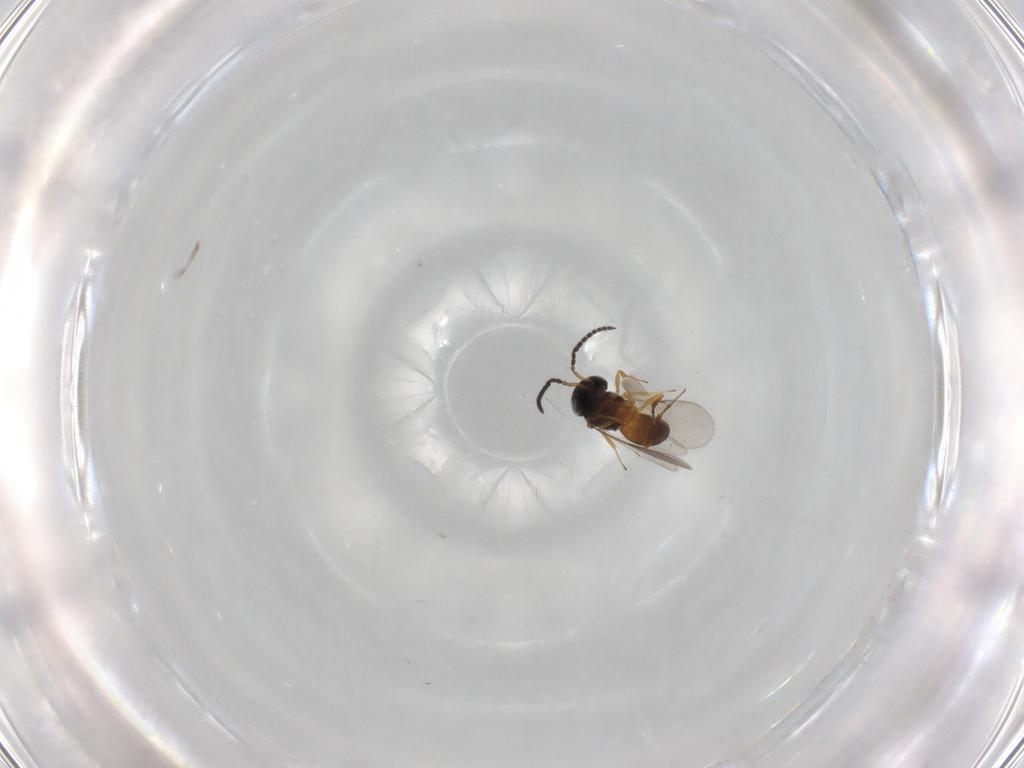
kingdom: Animalia
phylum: Arthropoda
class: Insecta
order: Hymenoptera
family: Scelionidae
